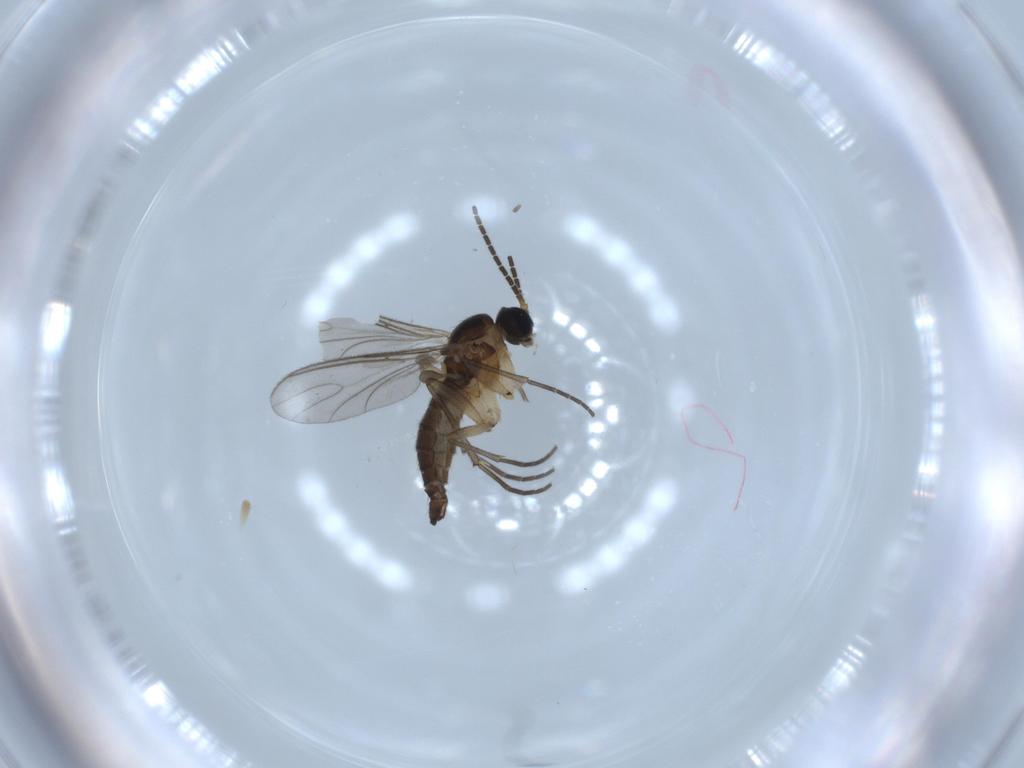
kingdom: Animalia
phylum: Arthropoda
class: Insecta
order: Diptera
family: Sciaridae
